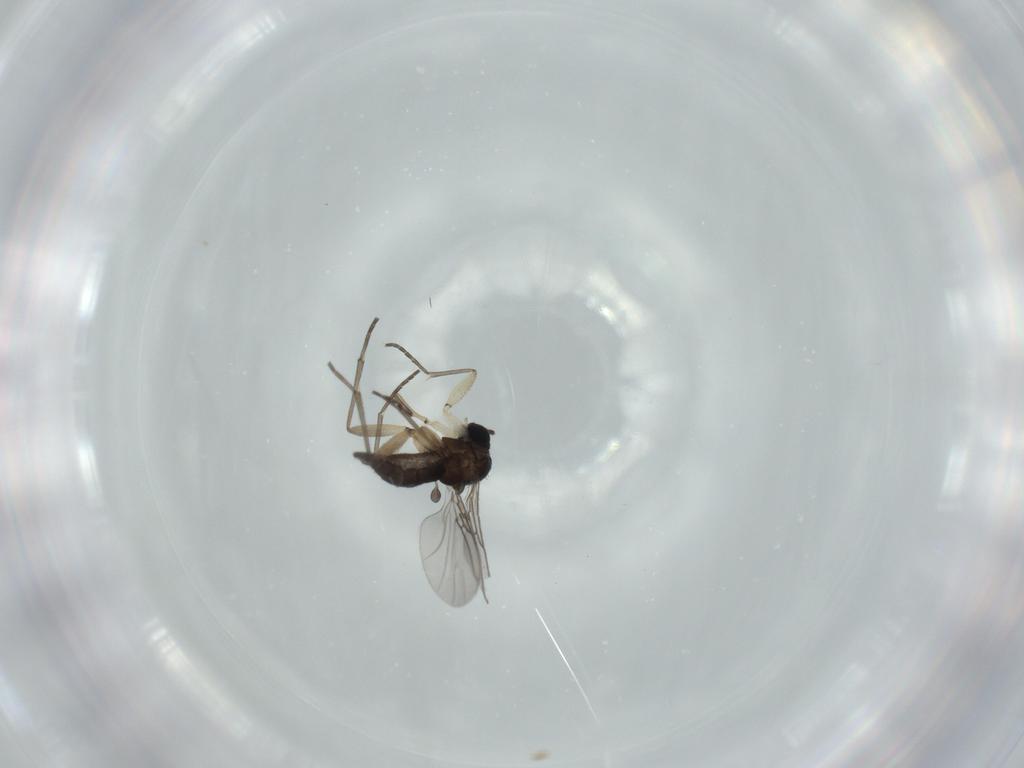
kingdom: Animalia
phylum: Arthropoda
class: Insecta
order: Diptera
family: Sciaridae
